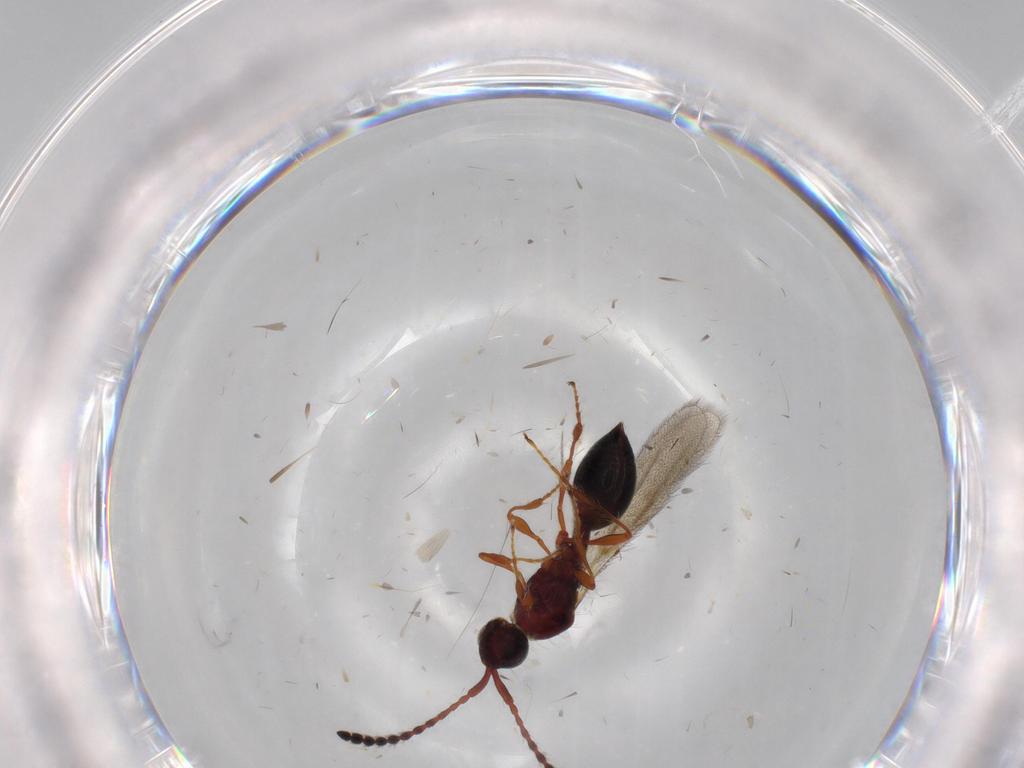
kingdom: Animalia
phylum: Arthropoda
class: Insecta
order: Hymenoptera
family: Diapriidae
